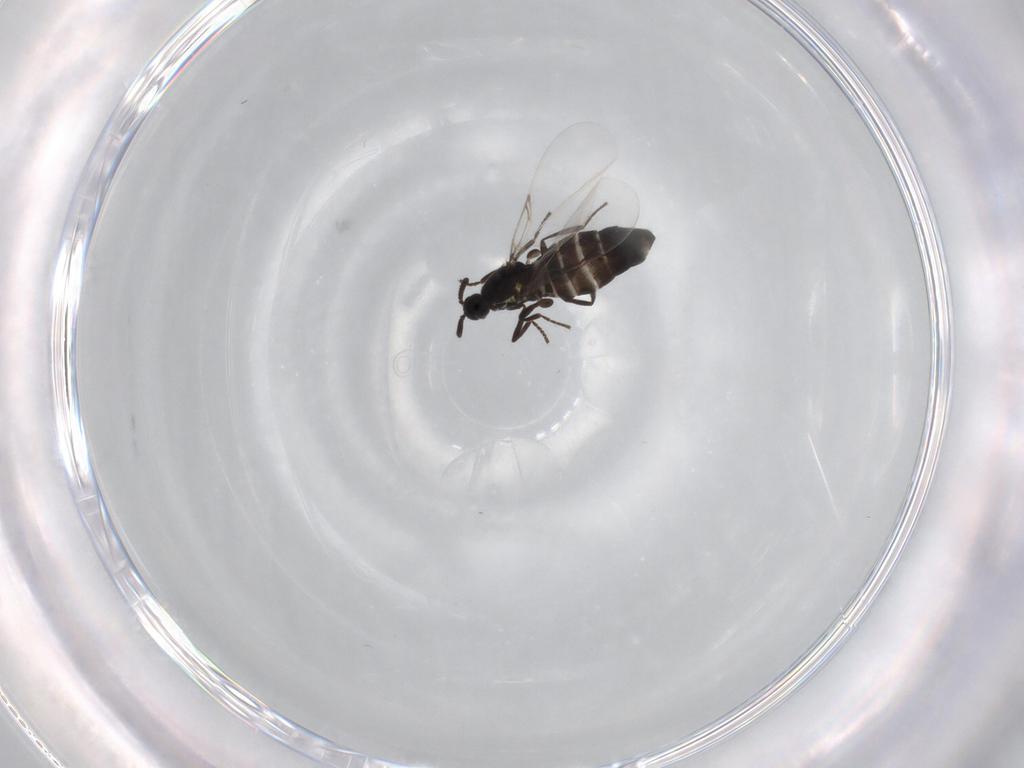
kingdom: Animalia
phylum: Arthropoda
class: Insecta
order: Diptera
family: Scatopsidae
